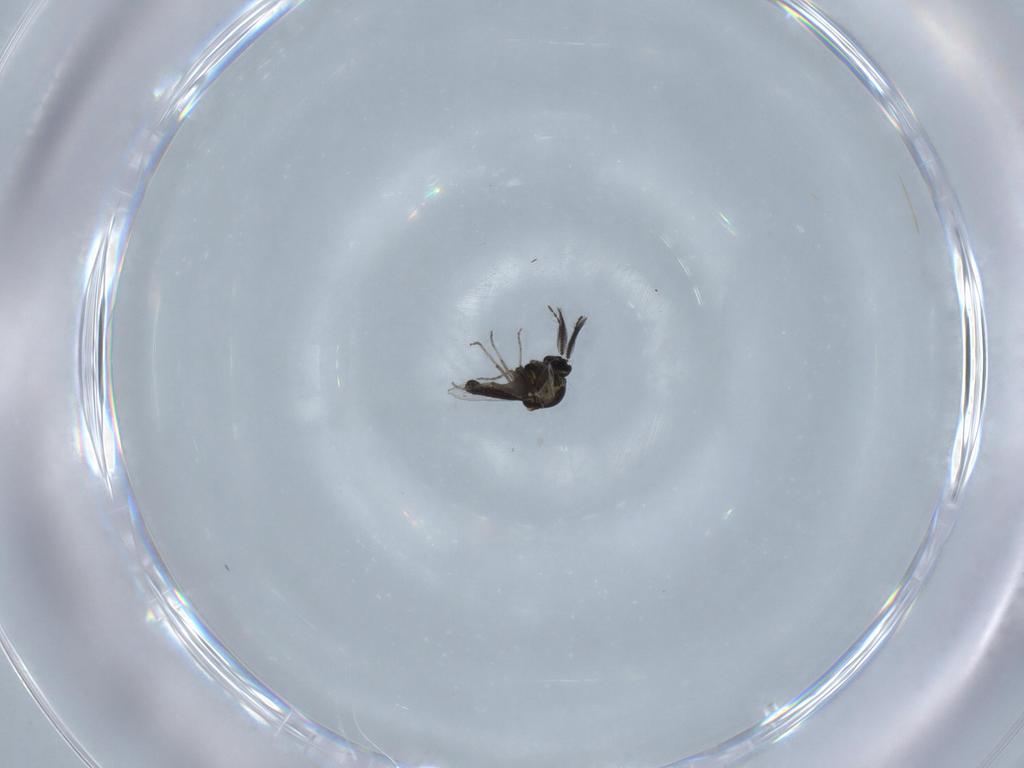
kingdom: Animalia
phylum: Arthropoda
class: Insecta
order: Diptera
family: Ceratopogonidae
